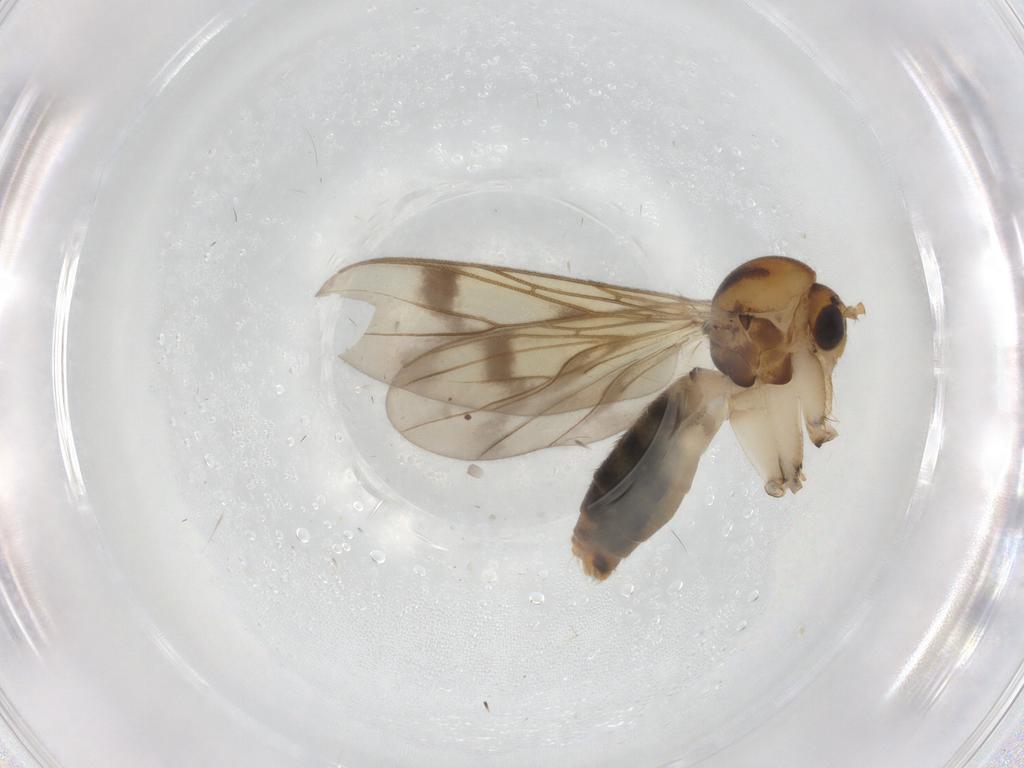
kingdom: Animalia
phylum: Arthropoda
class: Insecta
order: Diptera
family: Mycetophilidae
